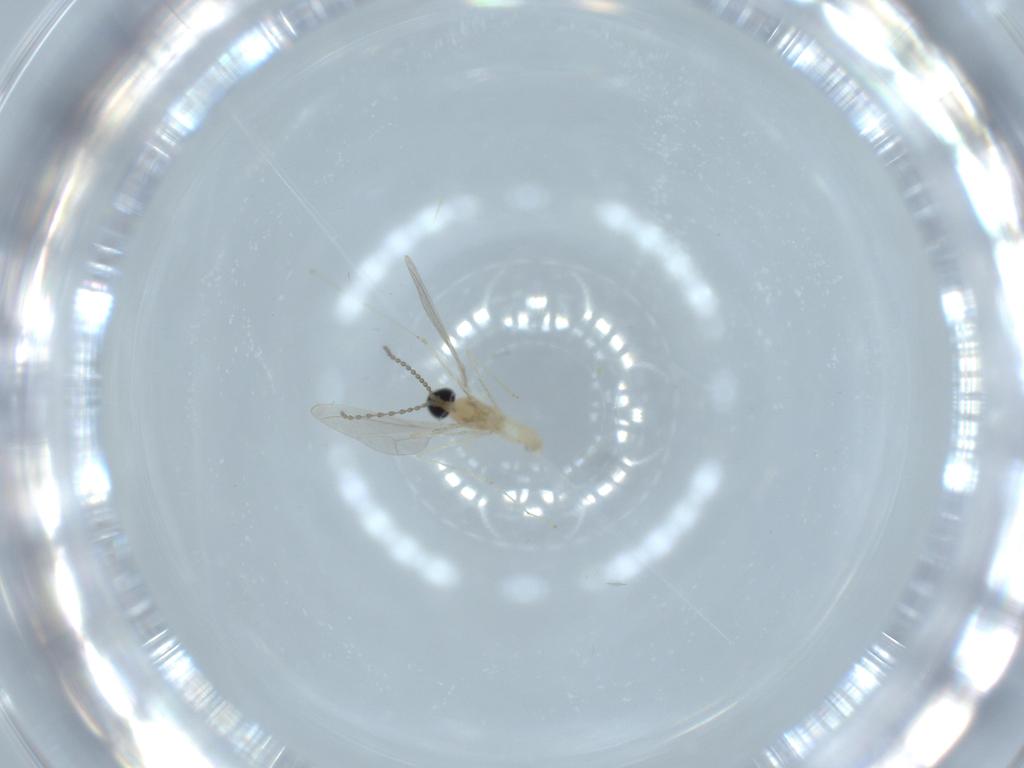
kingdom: Animalia
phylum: Arthropoda
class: Insecta
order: Diptera
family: Cecidomyiidae
